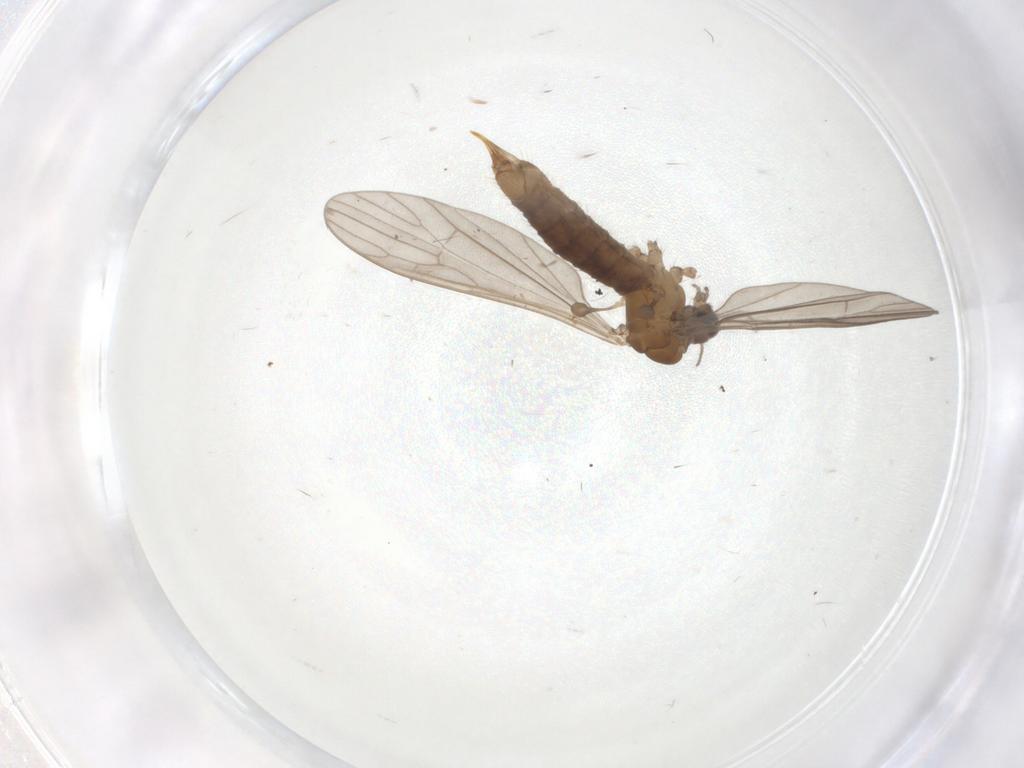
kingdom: Animalia
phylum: Arthropoda
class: Insecta
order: Diptera
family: Limoniidae
